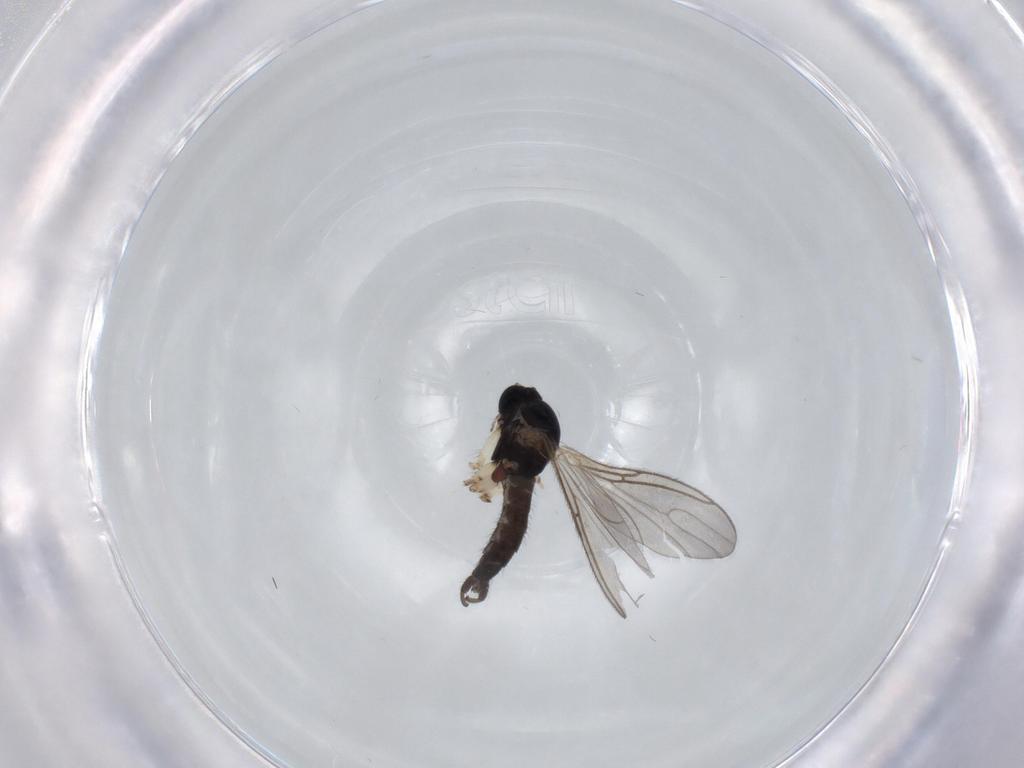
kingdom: Animalia
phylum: Arthropoda
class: Insecta
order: Diptera
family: Sciaridae
